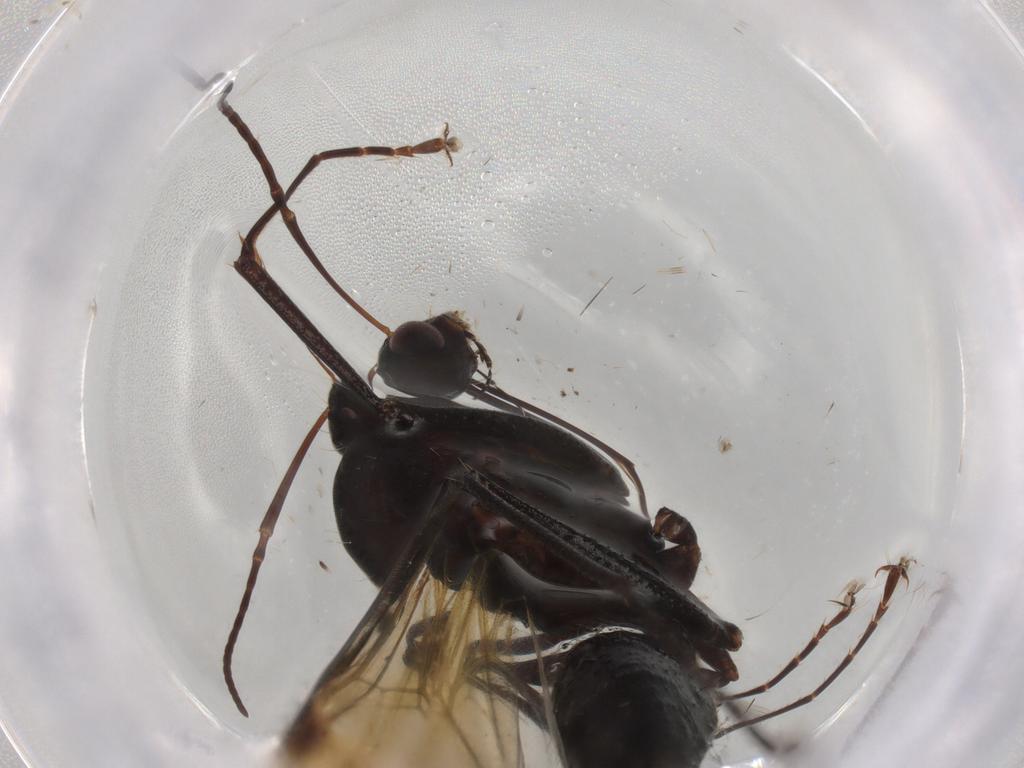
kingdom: Animalia
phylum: Arthropoda
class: Insecta
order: Hymenoptera
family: Formicidae
